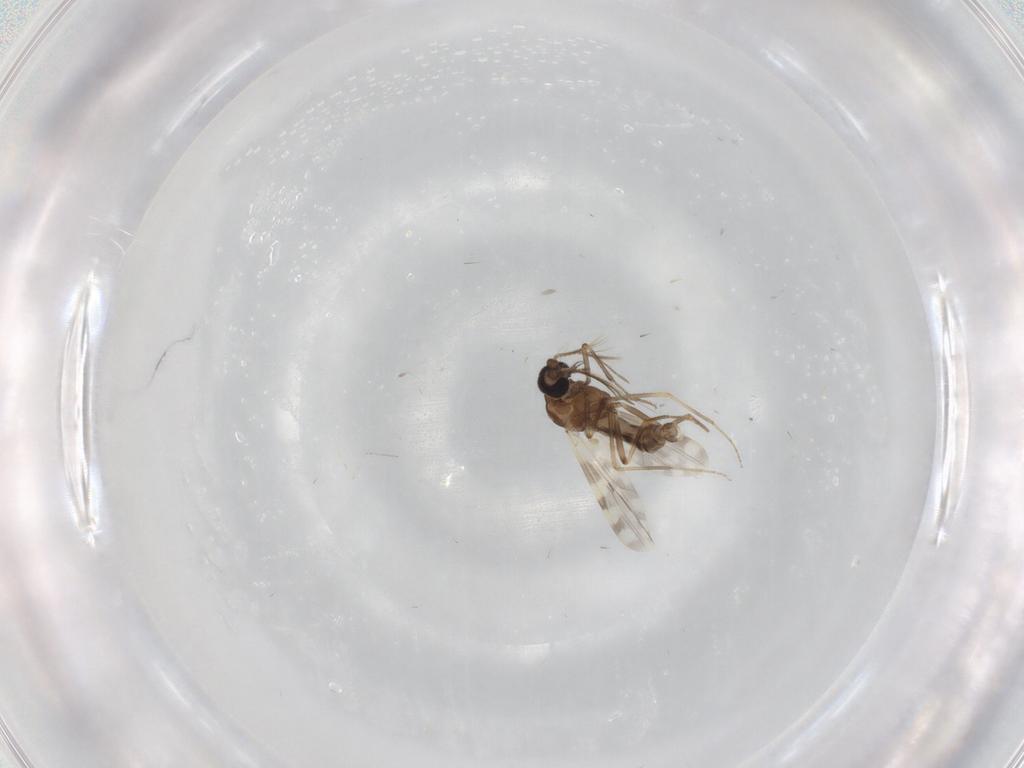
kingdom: Animalia
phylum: Arthropoda
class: Insecta
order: Diptera
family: Ceratopogonidae
